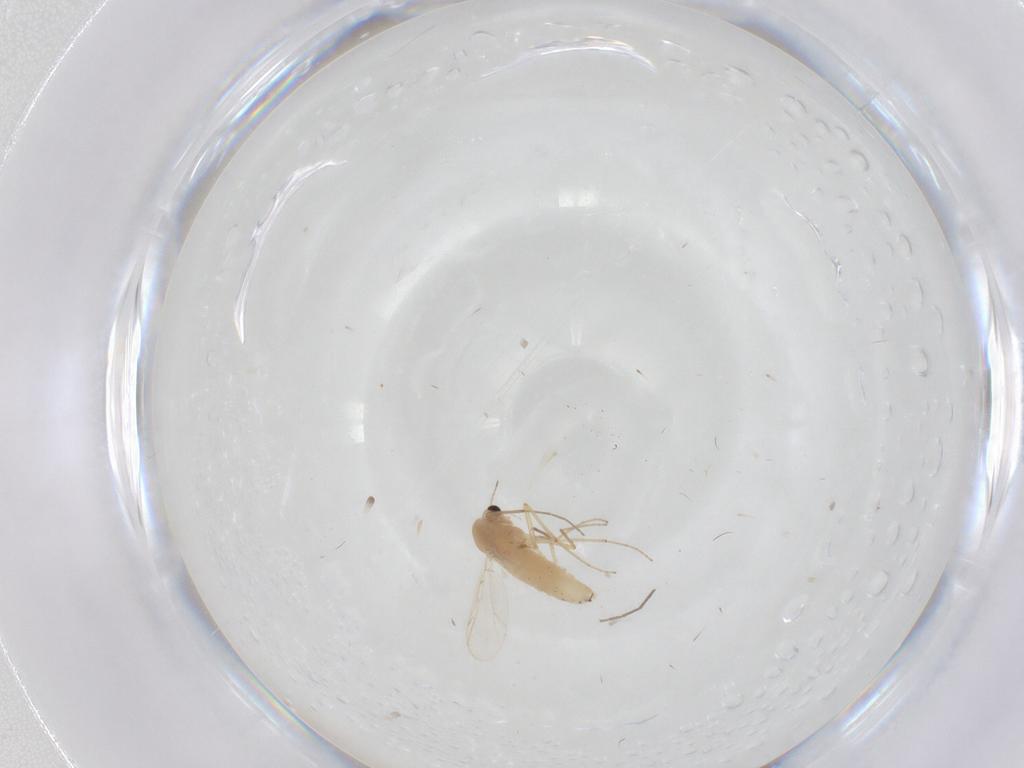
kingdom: Animalia
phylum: Arthropoda
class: Insecta
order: Diptera
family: Chironomidae
